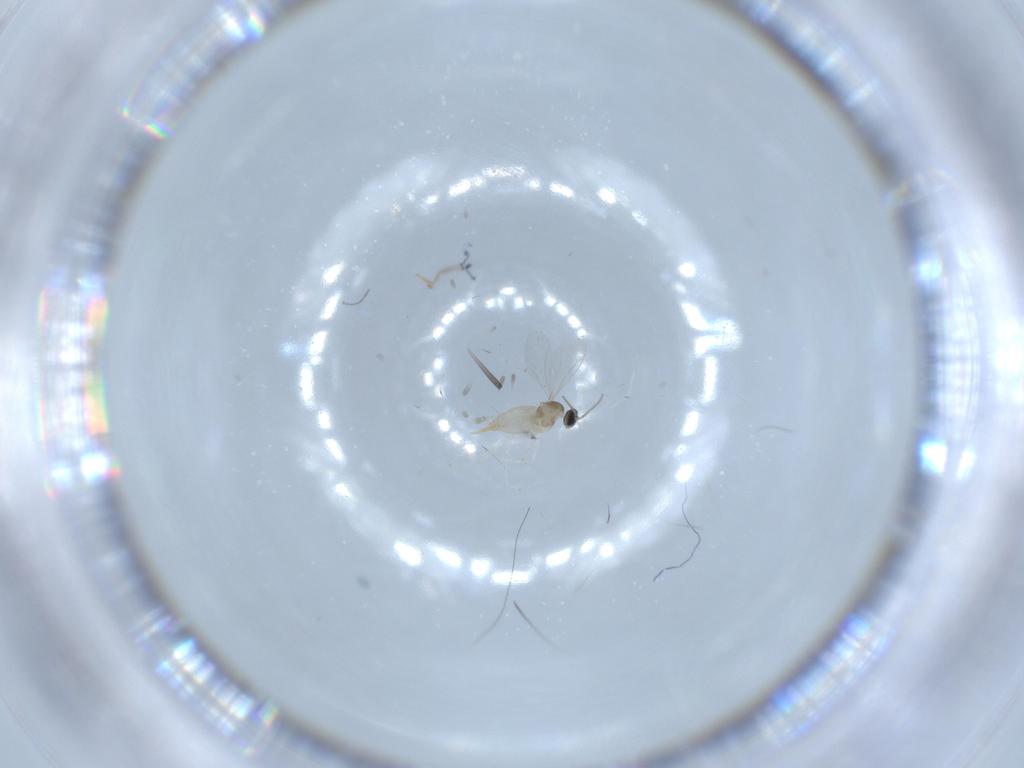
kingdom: Animalia
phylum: Arthropoda
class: Insecta
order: Diptera
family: Cecidomyiidae
